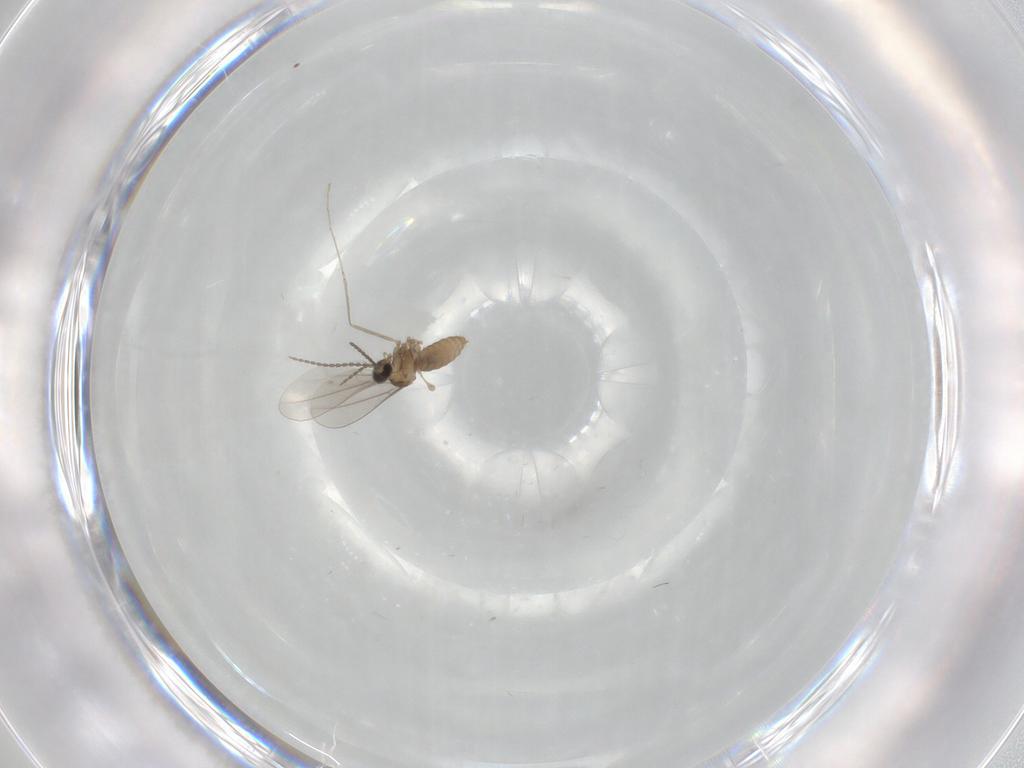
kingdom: Animalia
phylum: Arthropoda
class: Insecta
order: Diptera
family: Cecidomyiidae
